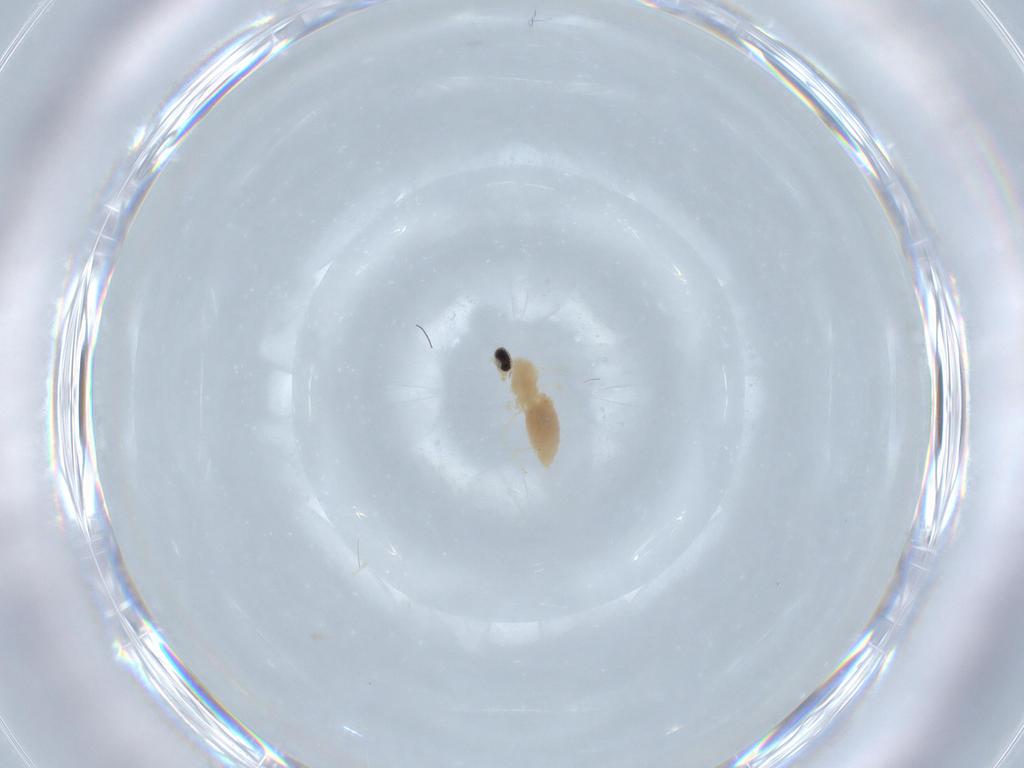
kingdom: Animalia
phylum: Arthropoda
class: Insecta
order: Diptera
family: Cecidomyiidae
